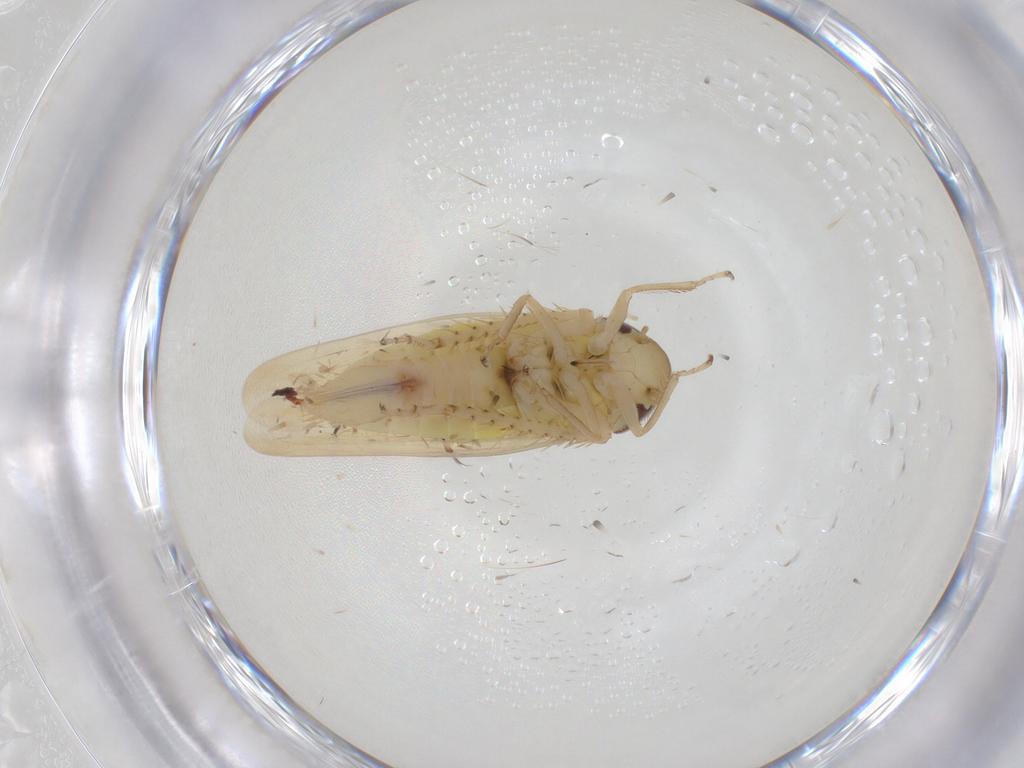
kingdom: Animalia
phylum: Arthropoda
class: Insecta
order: Hemiptera
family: Cicadellidae
